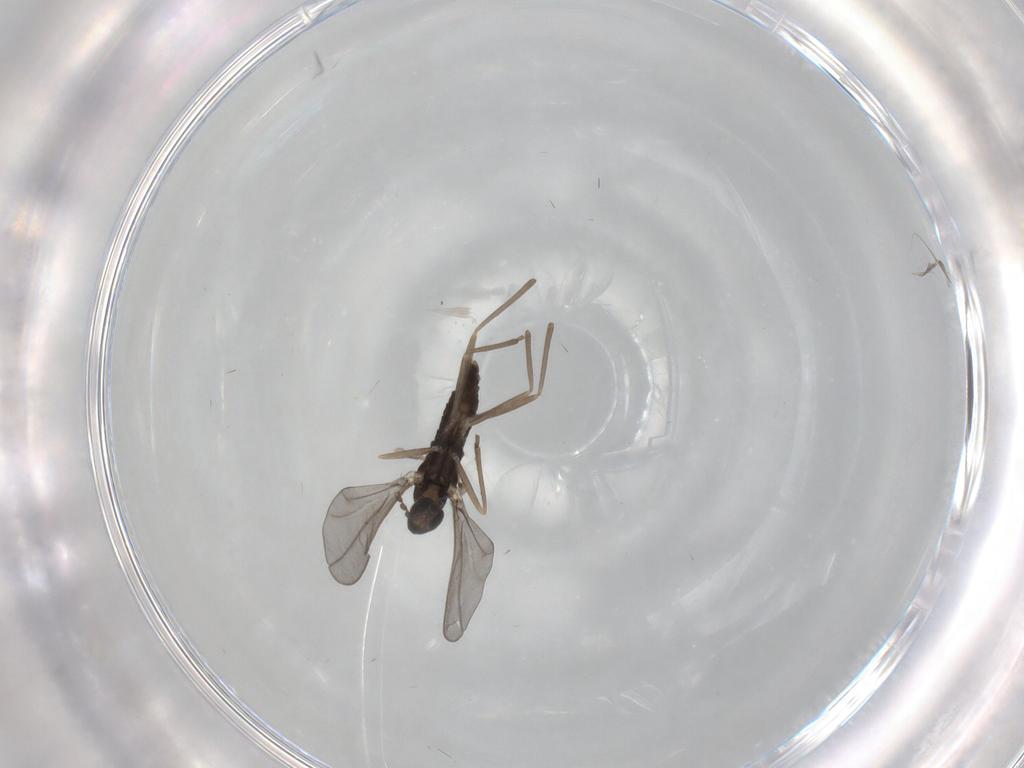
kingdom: Animalia
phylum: Arthropoda
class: Insecta
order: Diptera
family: Cecidomyiidae
